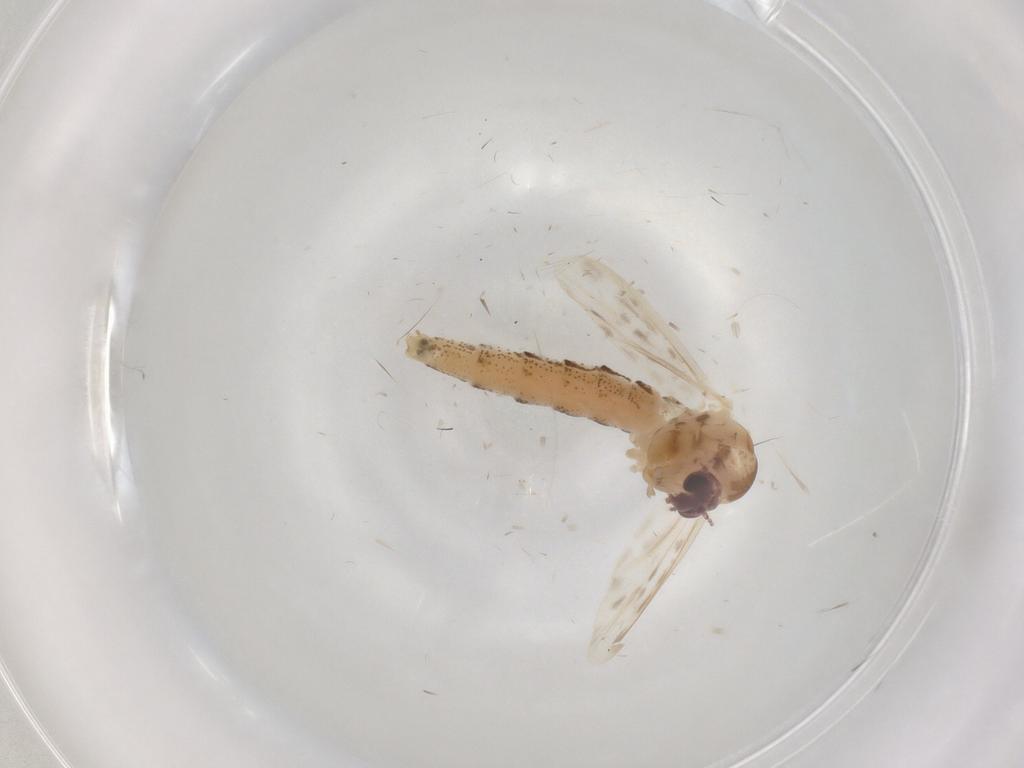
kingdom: Animalia
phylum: Arthropoda
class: Insecta
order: Diptera
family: Chaoboridae
